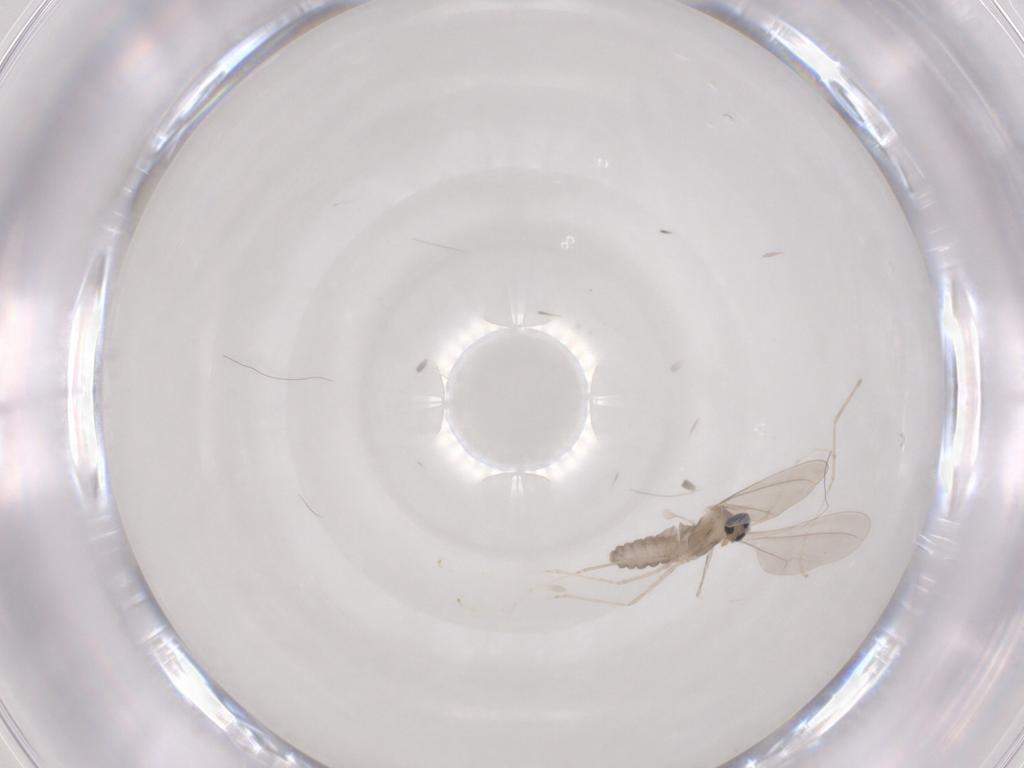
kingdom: Animalia
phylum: Arthropoda
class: Insecta
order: Diptera
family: Cecidomyiidae
